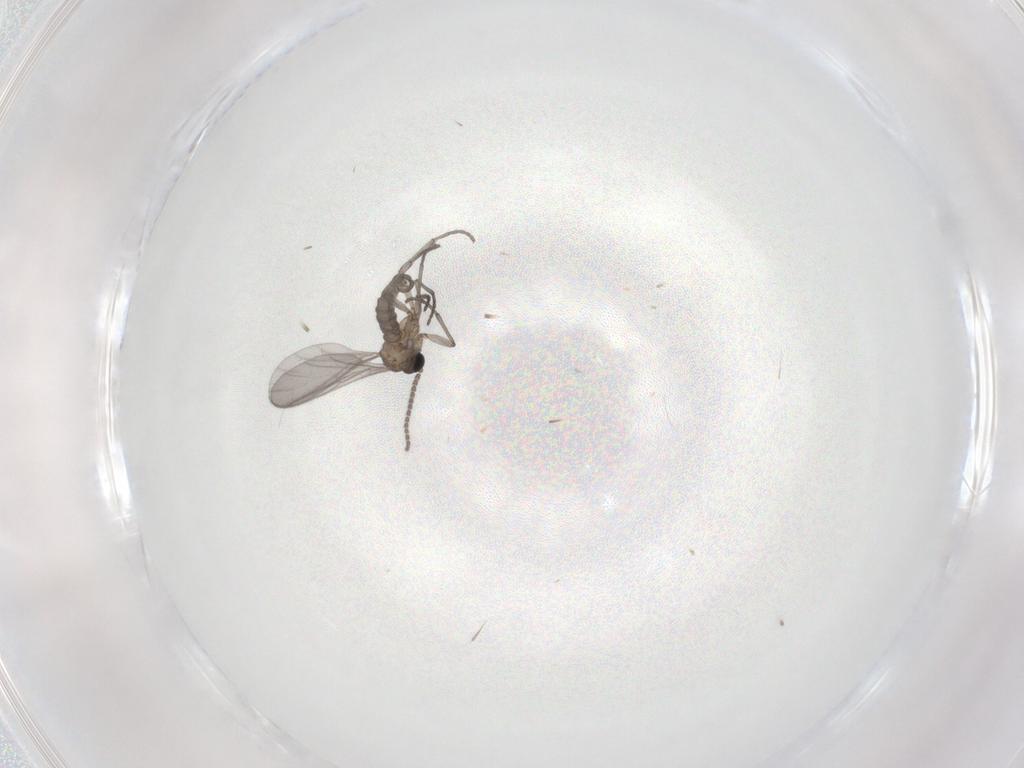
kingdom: Animalia
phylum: Arthropoda
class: Insecta
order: Diptera
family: Sciaridae
